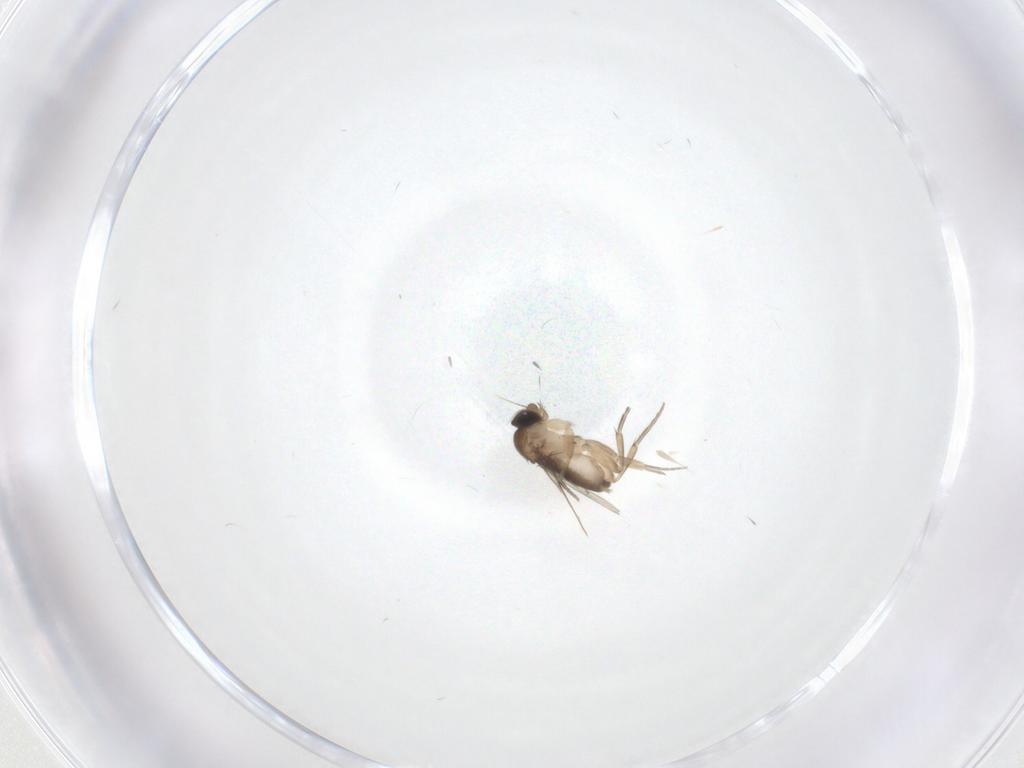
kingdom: Animalia
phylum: Arthropoda
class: Insecta
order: Diptera
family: Phoridae
